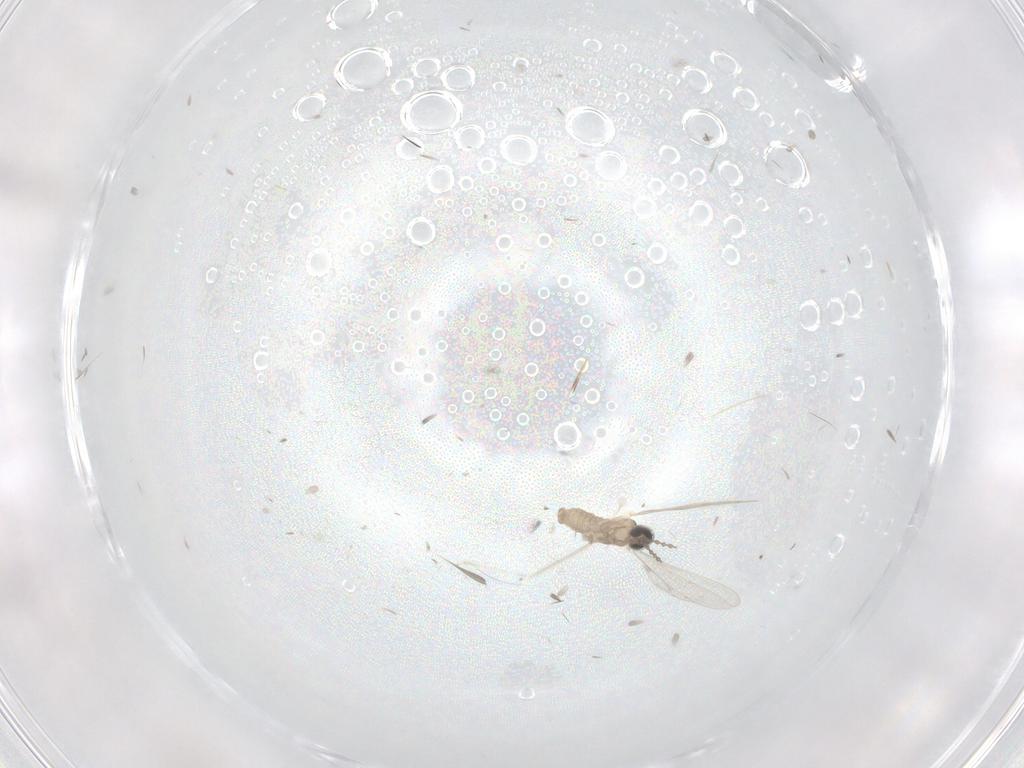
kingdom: Animalia
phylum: Arthropoda
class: Insecta
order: Diptera
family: Cecidomyiidae
